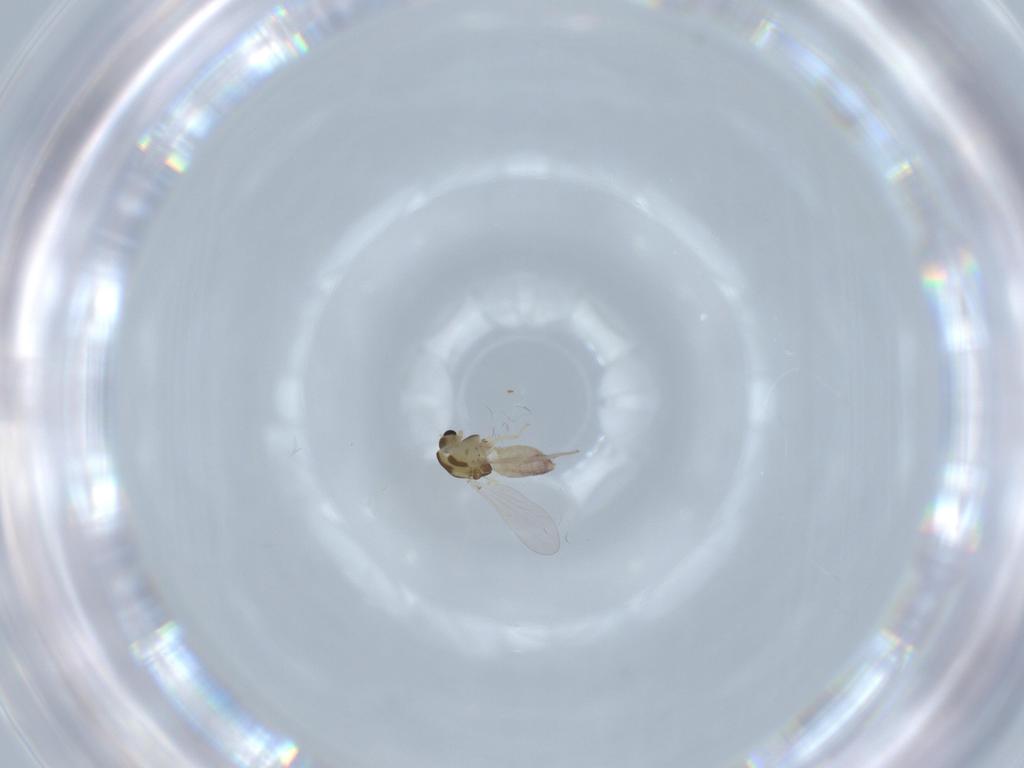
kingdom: Animalia
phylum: Arthropoda
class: Insecta
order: Diptera
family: Chironomidae
